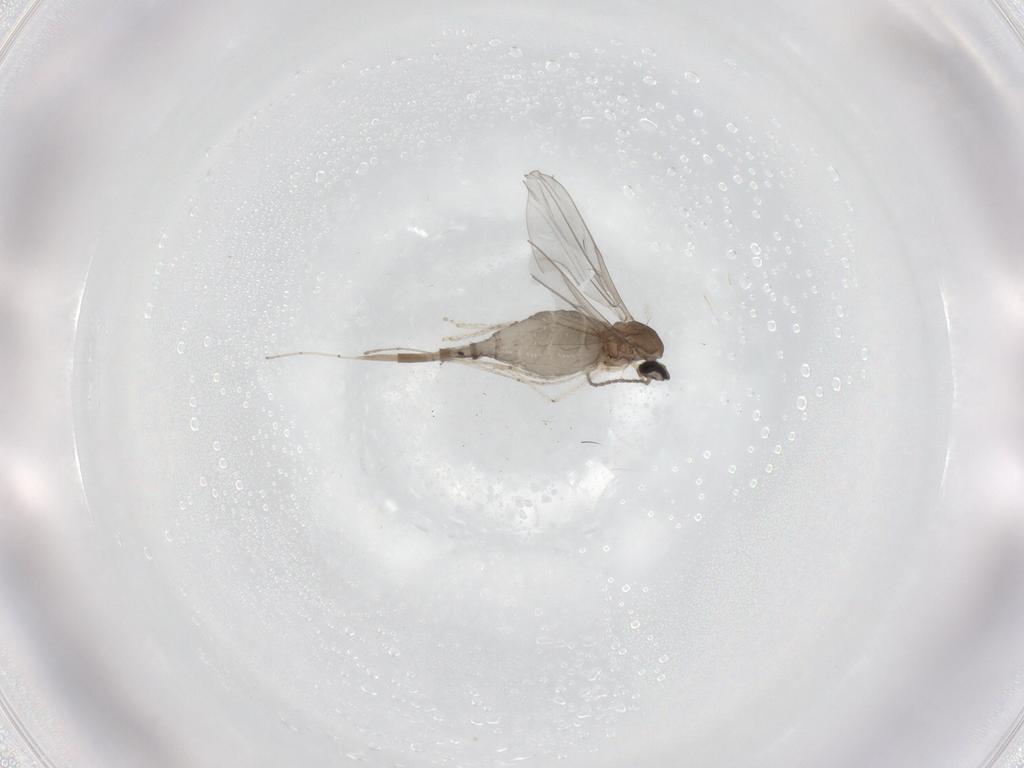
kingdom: Animalia
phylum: Arthropoda
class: Insecta
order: Diptera
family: Cecidomyiidae
